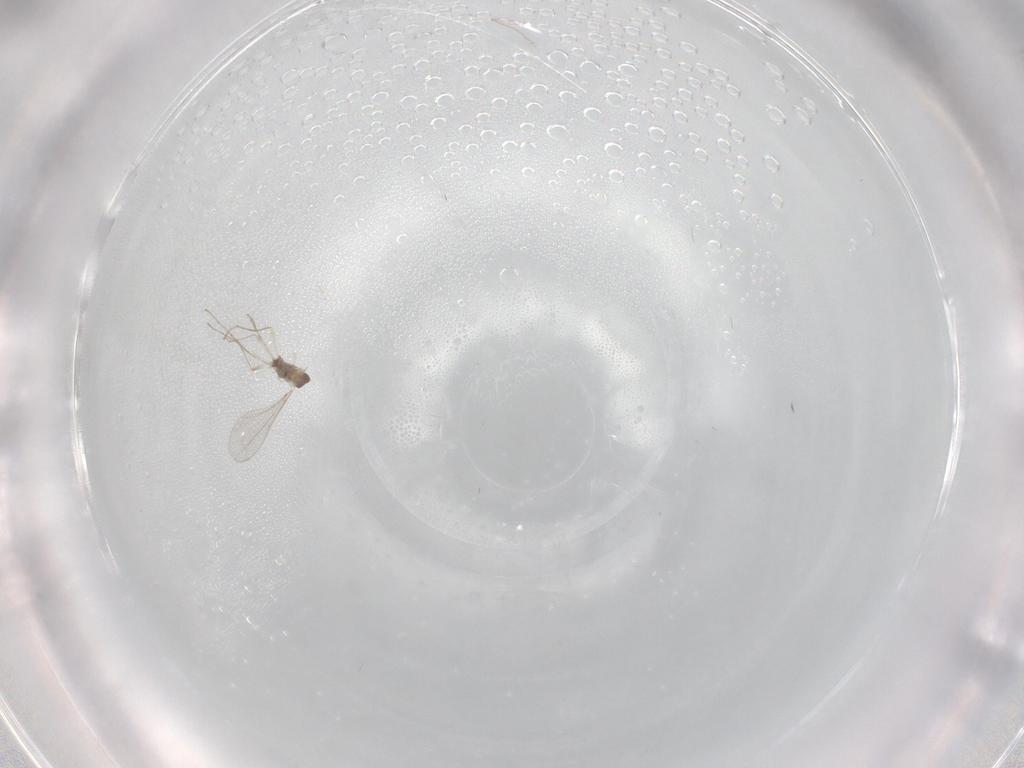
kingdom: Animalia
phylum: Arthropoda
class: Insecta
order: Diptera
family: Cecidomyiidae
